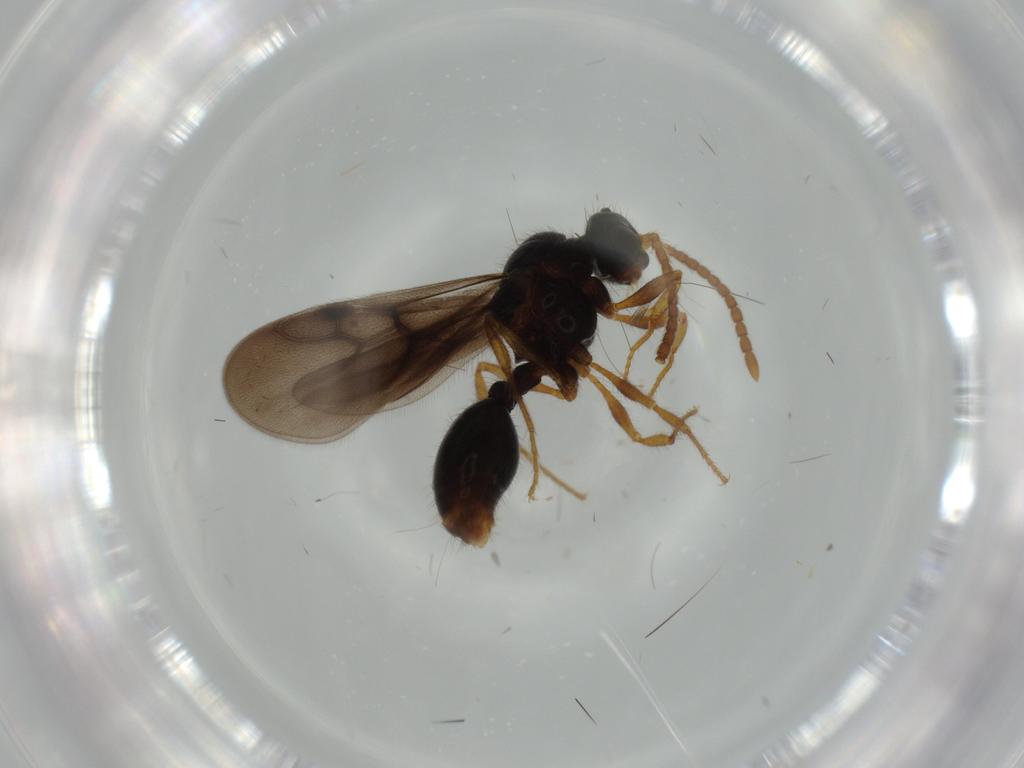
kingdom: Animalia
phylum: Arthropoda
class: Insecta
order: Hymenoptera
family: Formicidae
